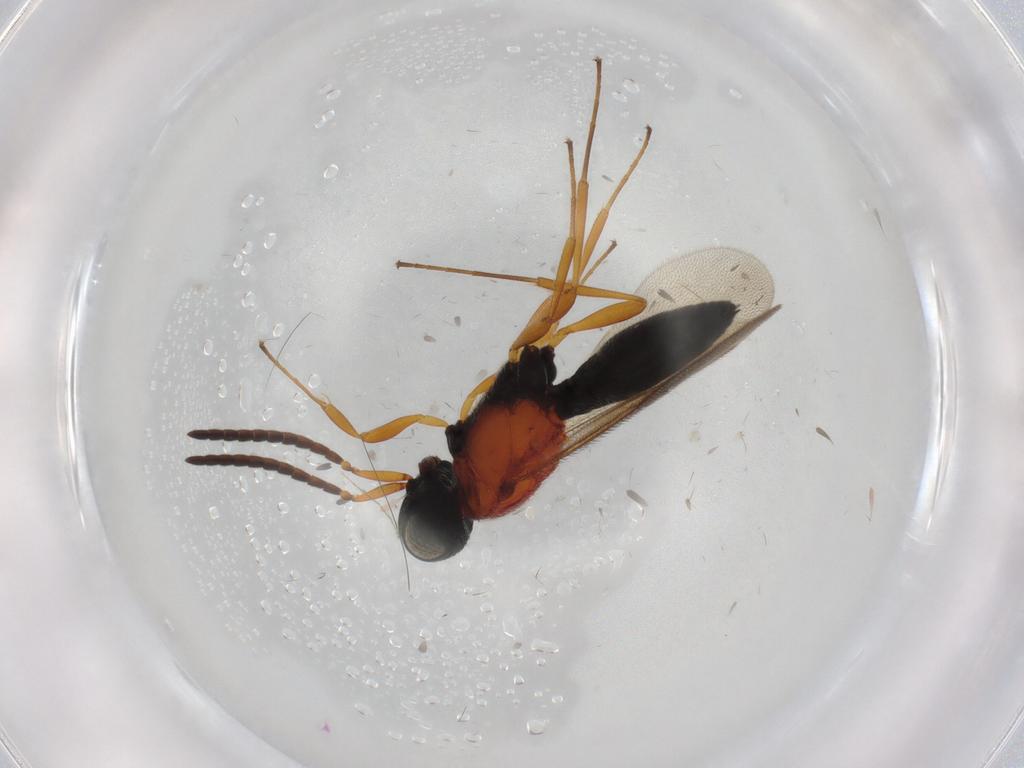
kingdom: Animalia
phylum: Arthropoda
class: Insecta
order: Hymenoptera
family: Scelionidae
